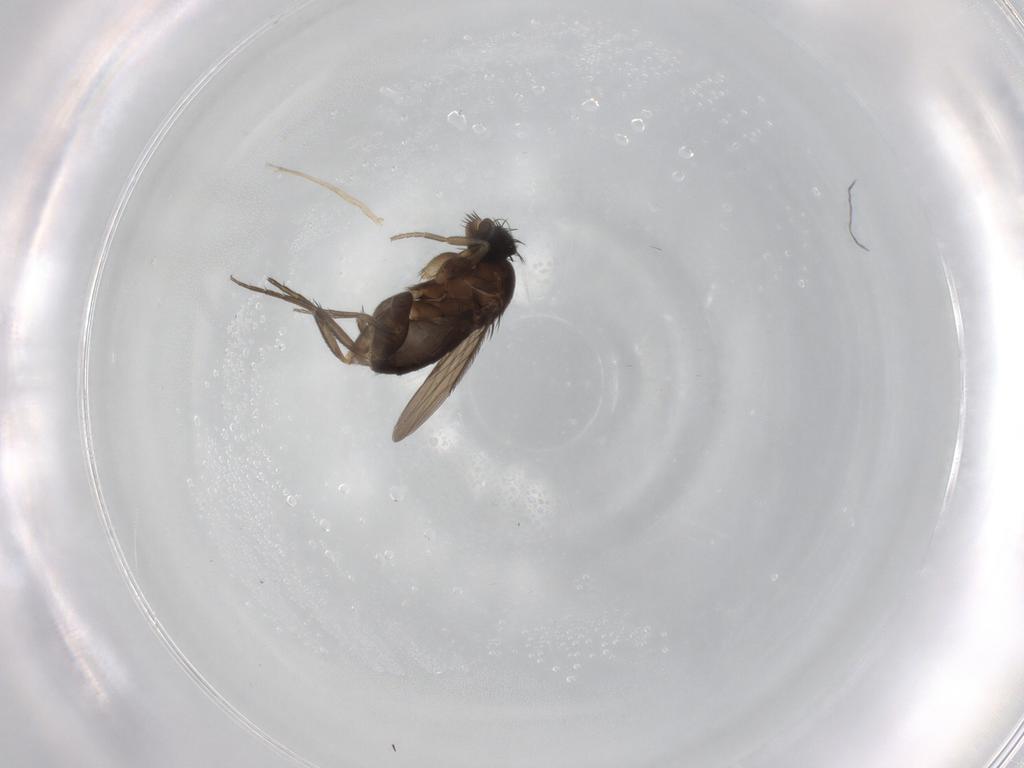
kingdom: Animalia
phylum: Arthropoda
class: Insecta
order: Diptera
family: Phoridae
